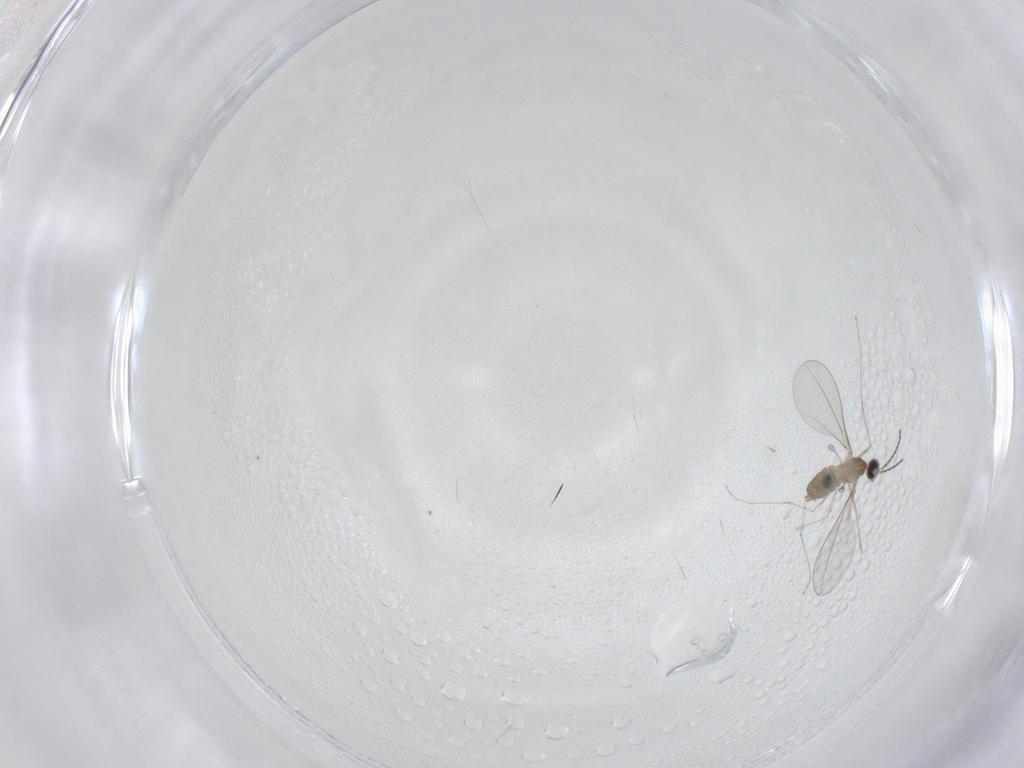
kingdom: Animalia
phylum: Arthropoda
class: Insecta
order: Diptera
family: Cecidomyiidae
